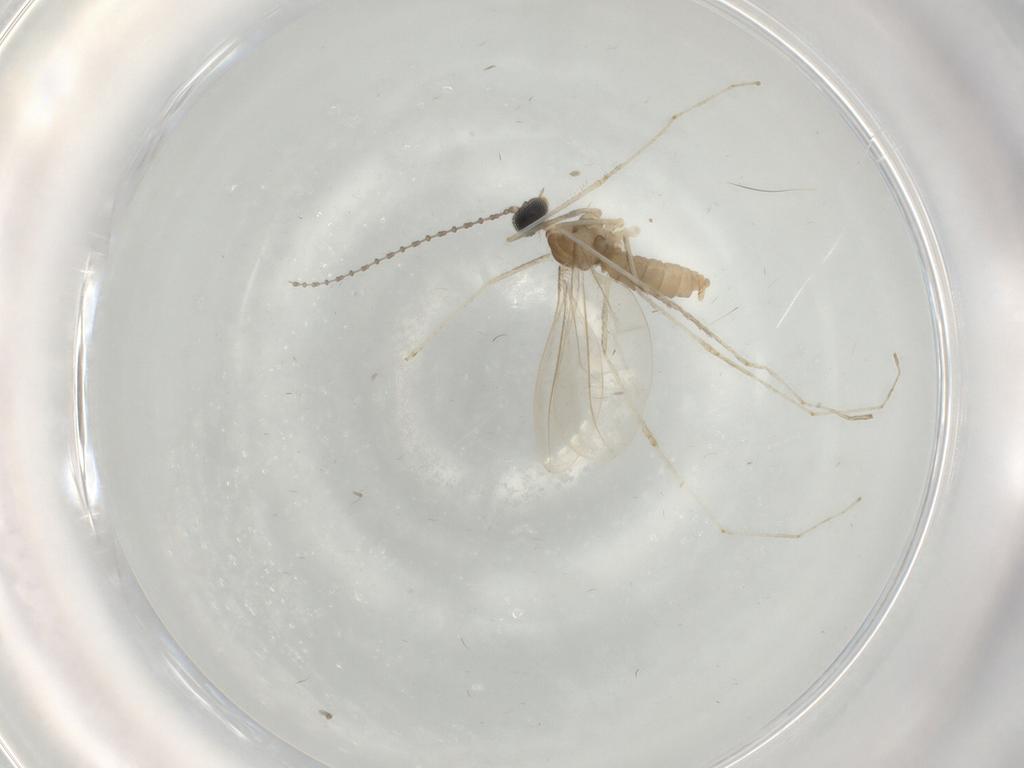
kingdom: Animalia
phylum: Arthropoda
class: Insecta
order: Diptera
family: Cecidomyiidae
